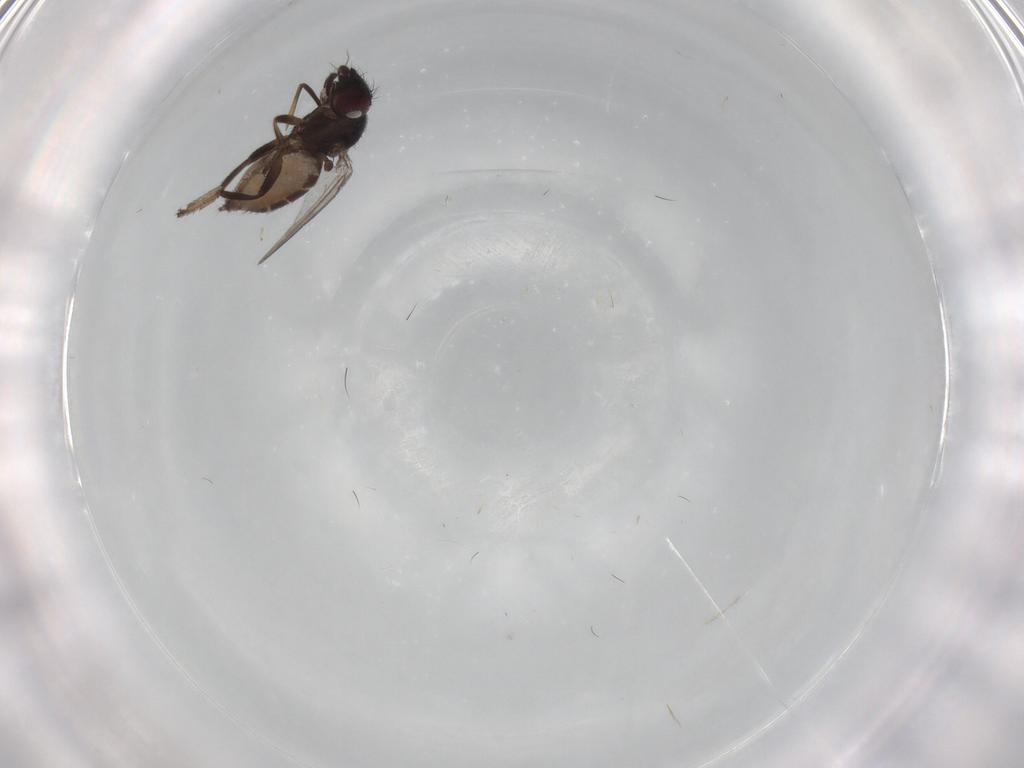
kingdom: Animalia
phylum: Arthropoda
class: Insecta
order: Diptera
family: Milichiidae
